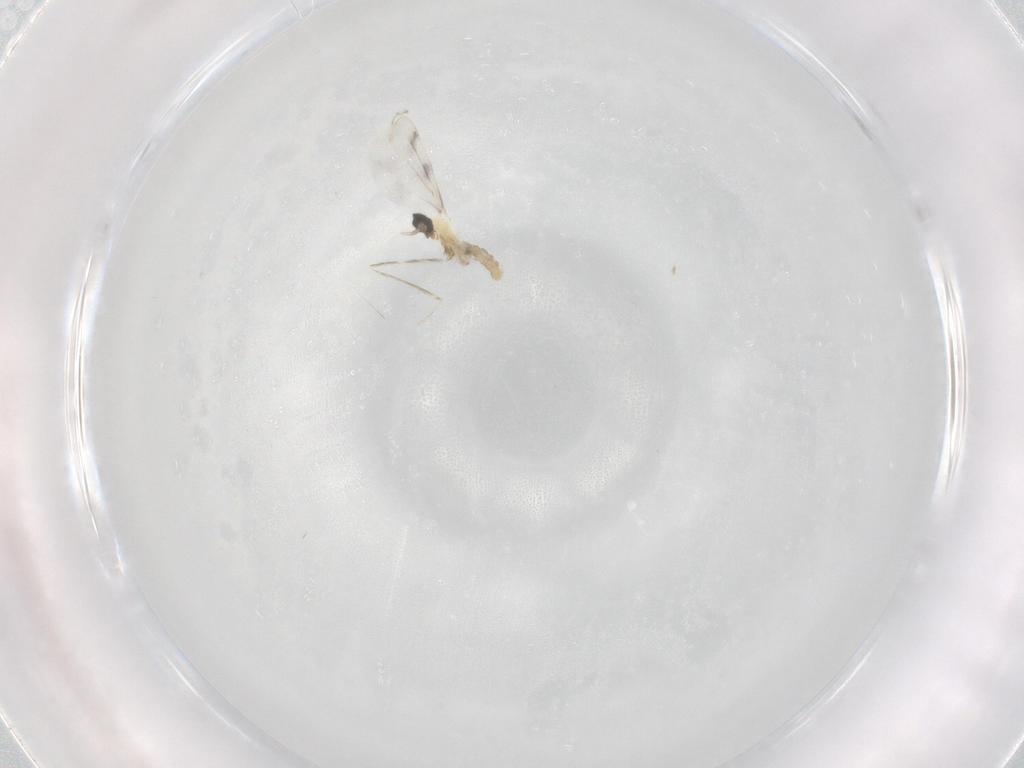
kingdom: Animalia
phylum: Arthropoda
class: Insecta
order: Diptera
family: Cecidomyiidae
